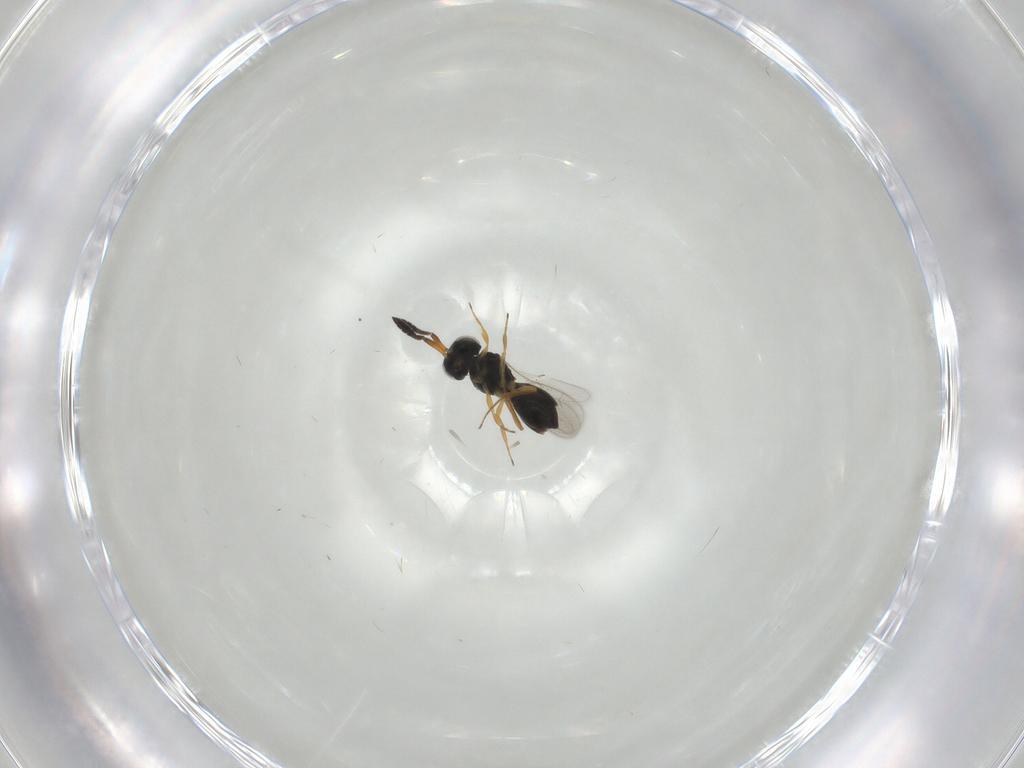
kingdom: Animalia
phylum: Arthropoda
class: Insecta
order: Hymenoptera
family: Scelionidae
